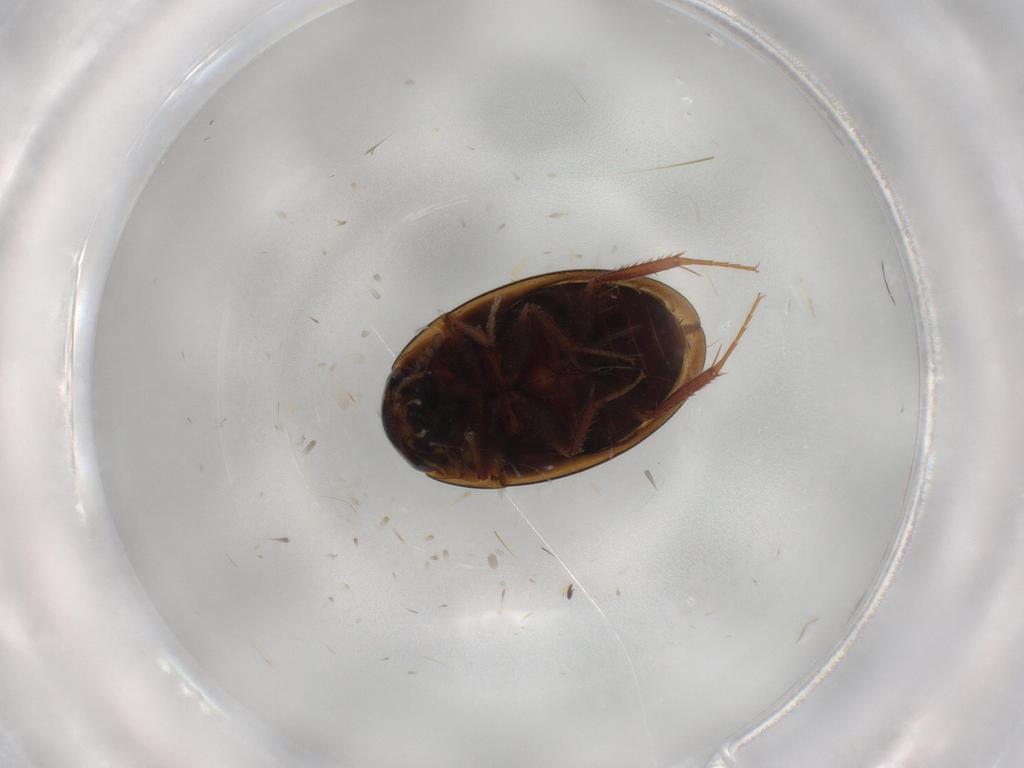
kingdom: Animalia
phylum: Arthropoda
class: Insecta
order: Coleoptera
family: Hydrophilidae
